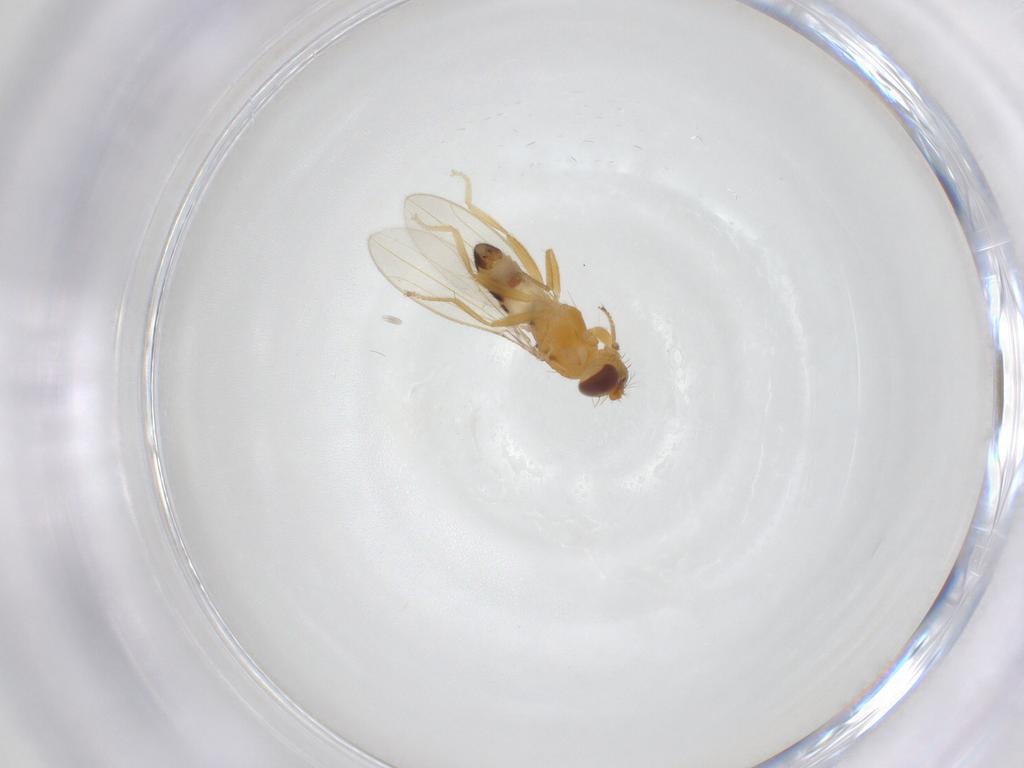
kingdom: Animalia
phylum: Arthropoda
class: Insecta
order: Diptera
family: Periscelididae
